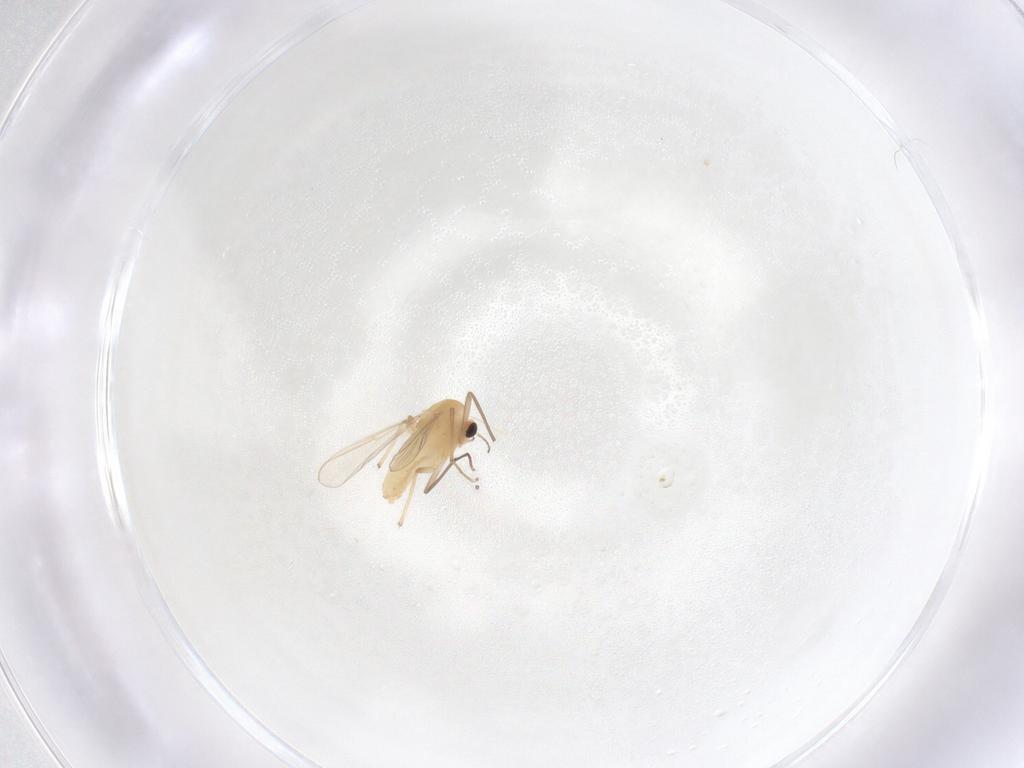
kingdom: Animalia
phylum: Arthropoda
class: Insecta
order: Diptera
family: Chironomidae
